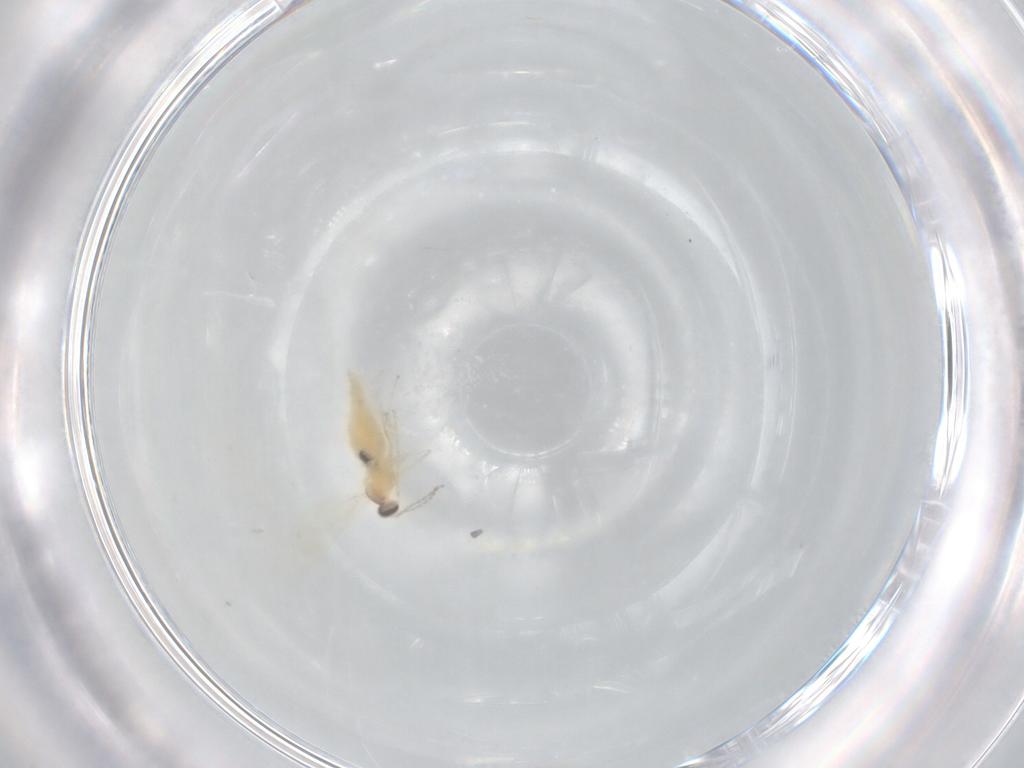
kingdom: Animalia
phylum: Arthropoda
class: Insecta
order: Diptera
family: Cecidomyiidae
